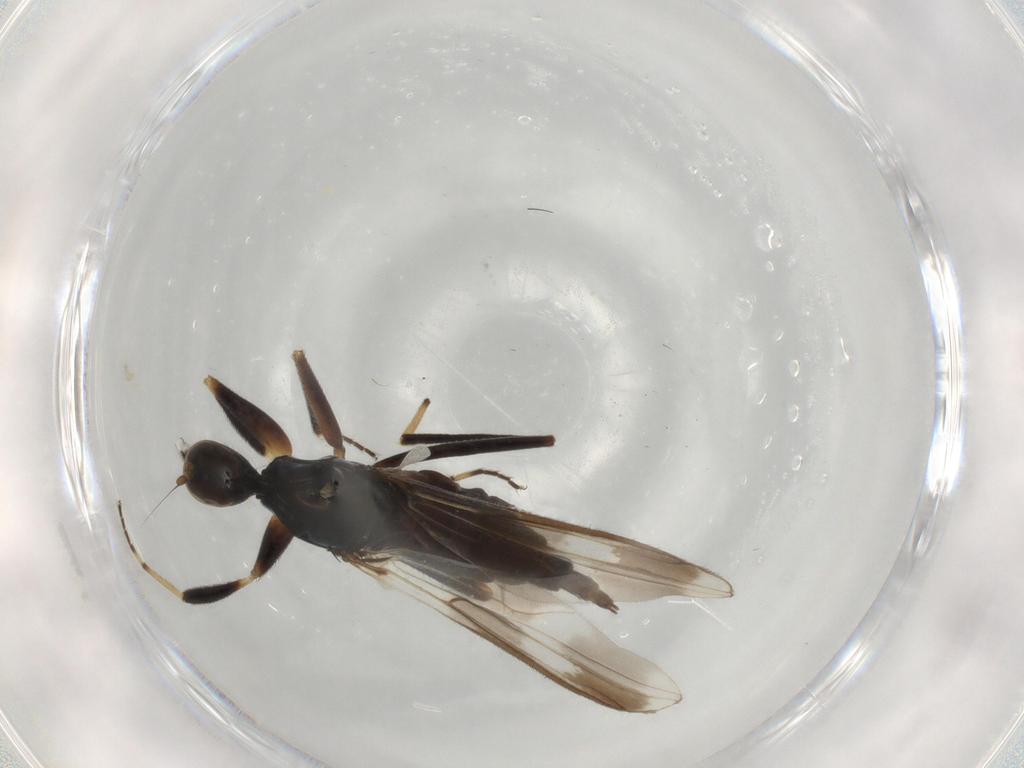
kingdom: Animalia
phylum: Arthropoda
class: Insecta
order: Diptera
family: Hybotidae
